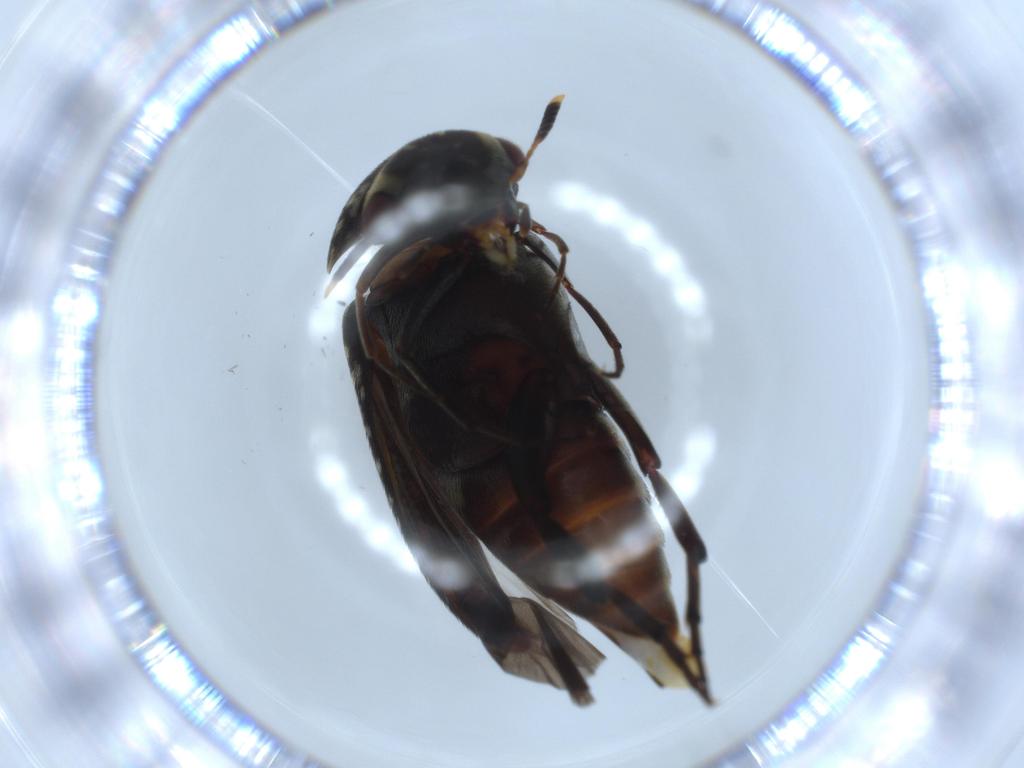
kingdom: Animalia
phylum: Arthropoda
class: Insecta
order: Coleoptera
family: Mordellidae
